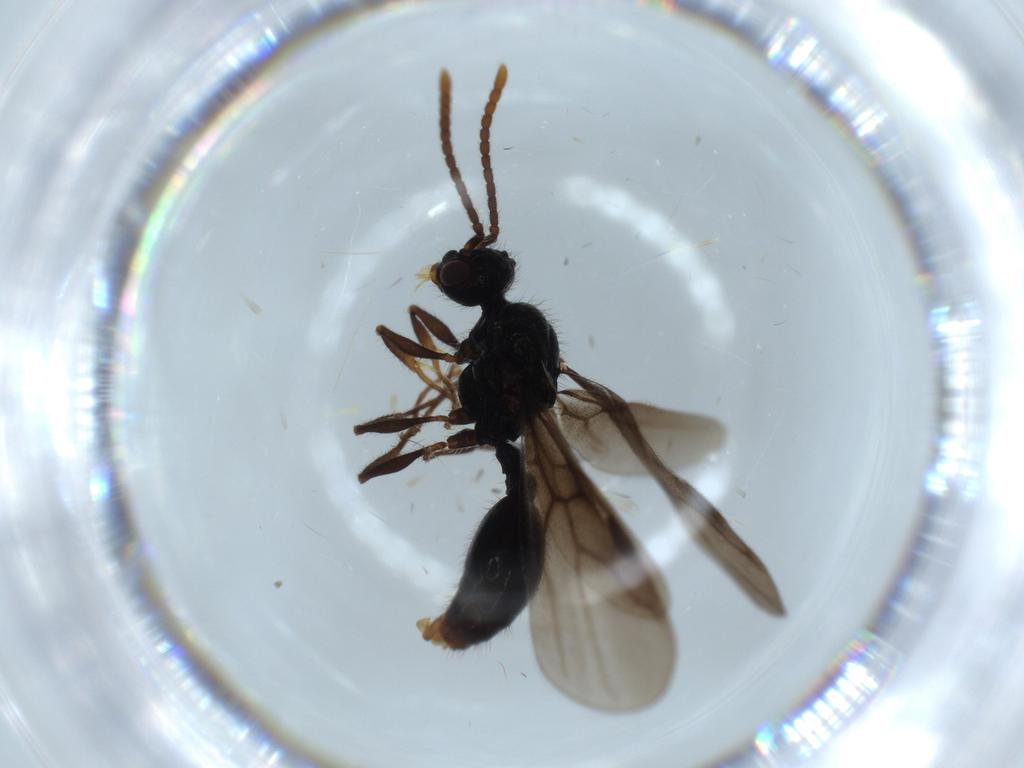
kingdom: Animalia
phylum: Arthropoda
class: Insecta
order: Hymenoptera
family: Mymaridae
